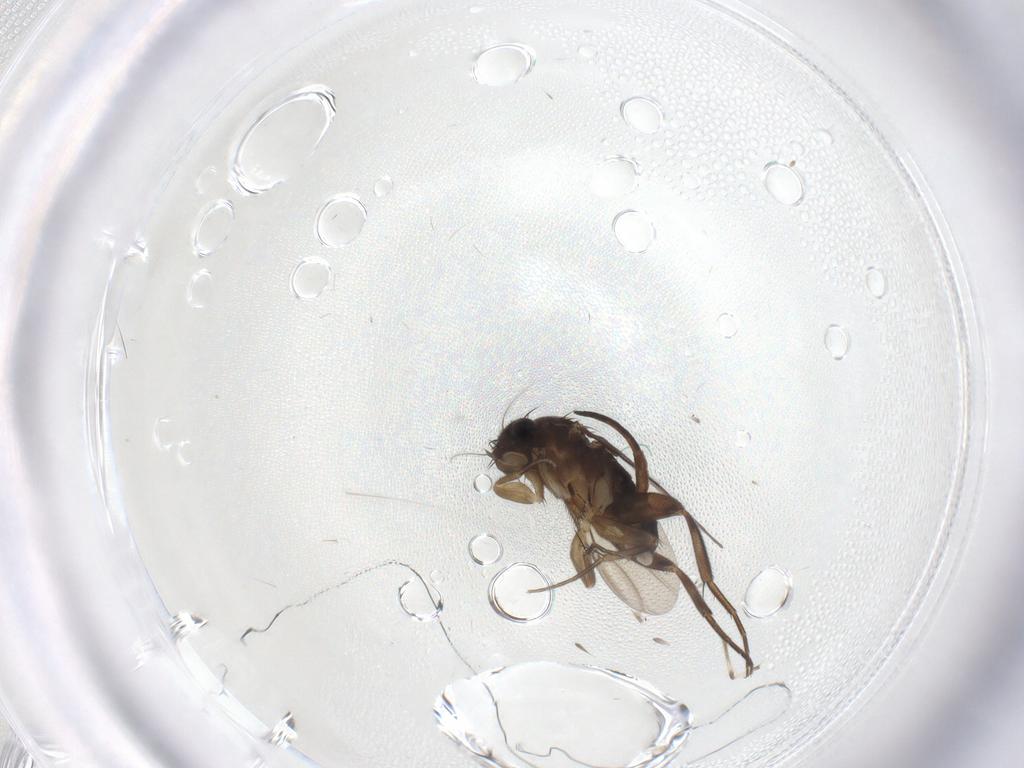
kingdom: Animalia
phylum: Arthropoda
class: Insecta
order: Diptera
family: Phoridae
